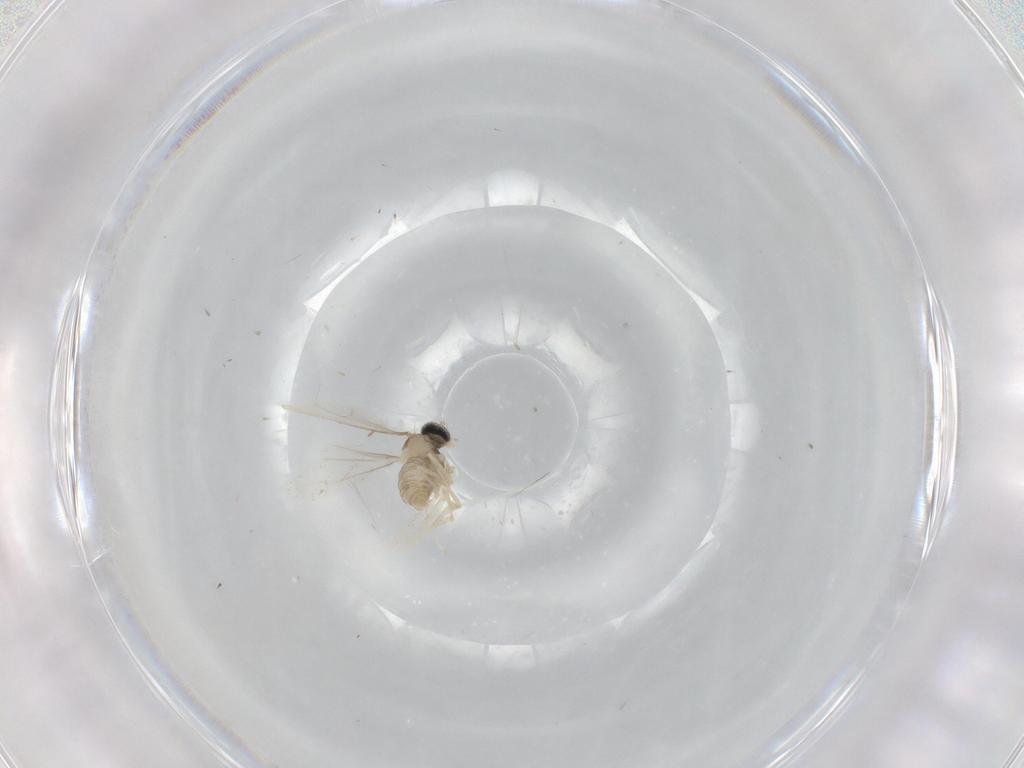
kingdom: Animalia
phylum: Arthropoda
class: Insecta
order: Diptera
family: Cecidomyiidae
